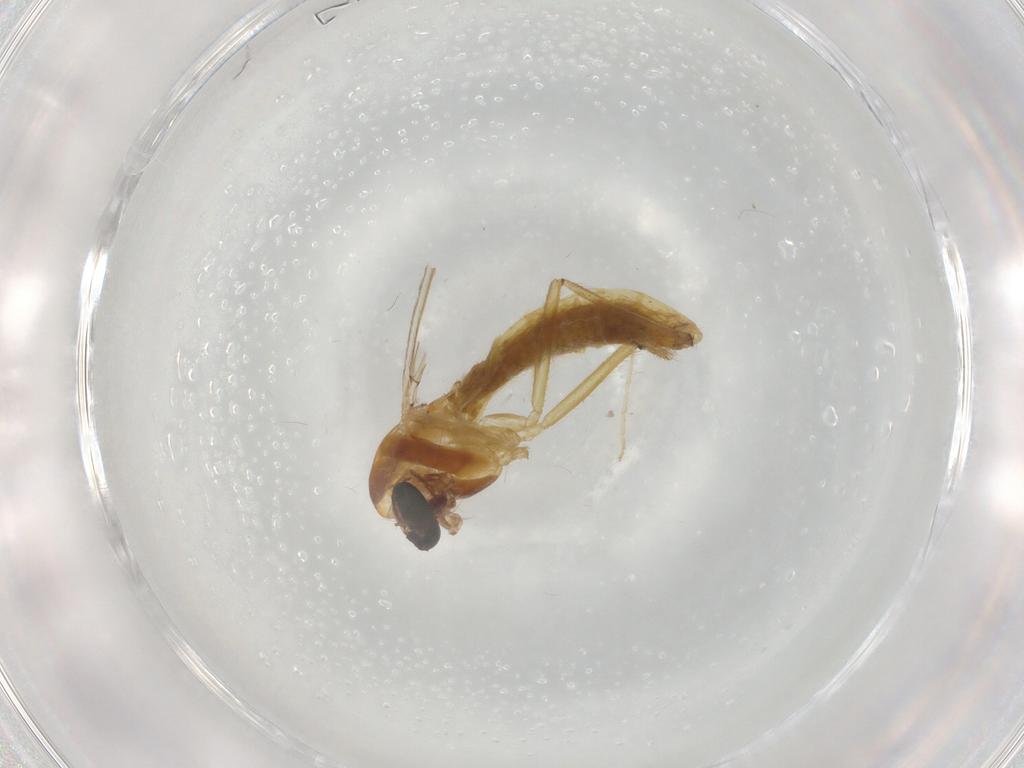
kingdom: Animalia
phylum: Arthropoda
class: Insecta
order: Diptera
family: Chironomidae
